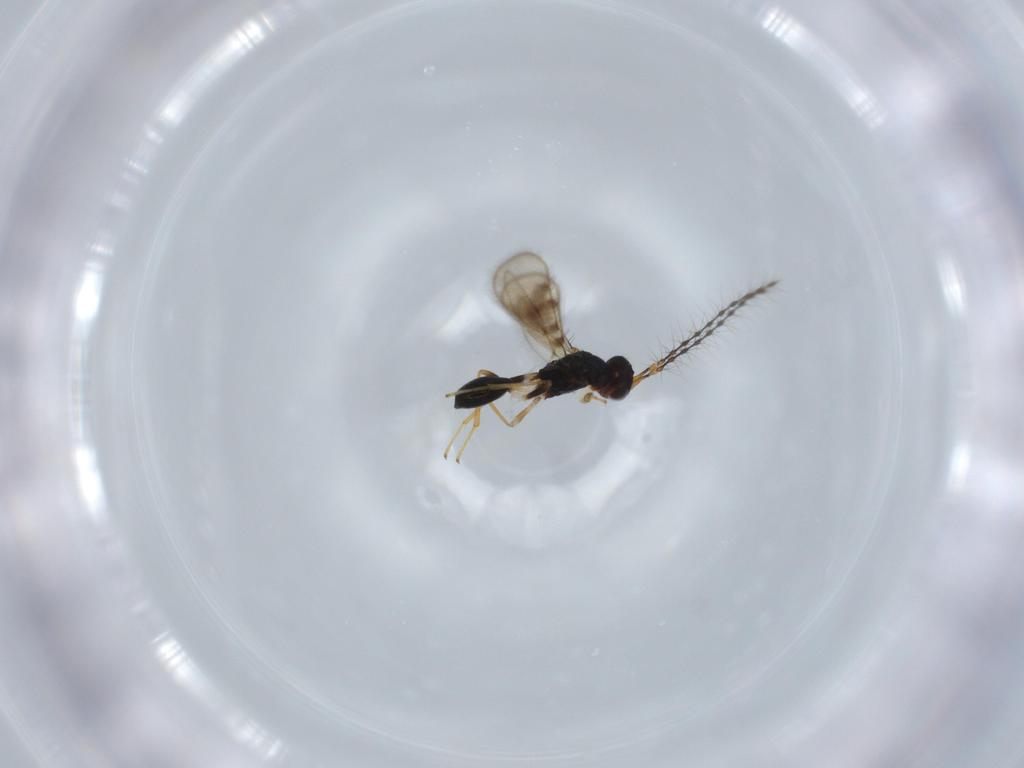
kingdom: Animalia
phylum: Arthropoda
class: Insecta
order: Hymenoptera
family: Diparidae
